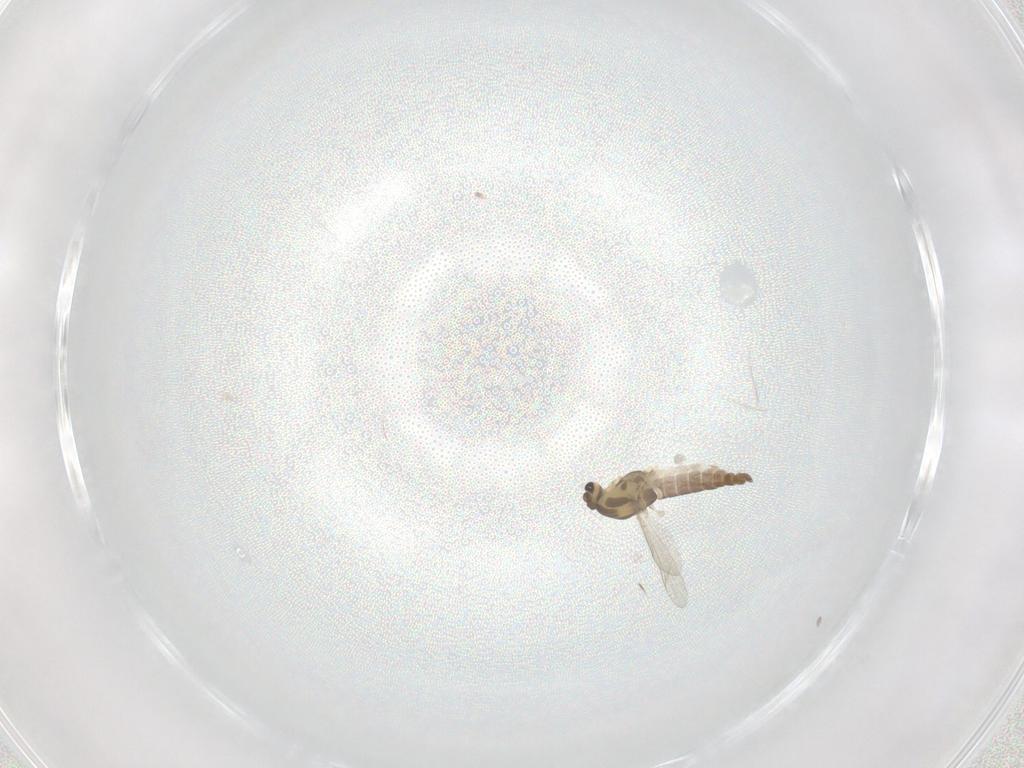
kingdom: Animalia
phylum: Arthropoda
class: Insecta
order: Diptera
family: Chironomidae
